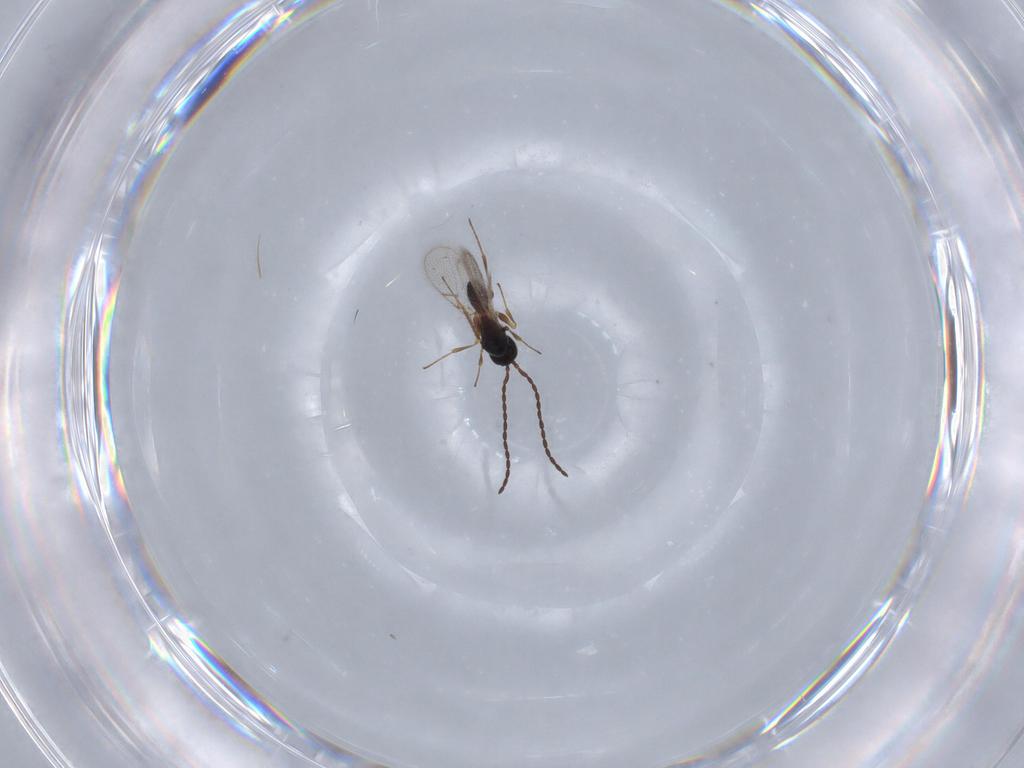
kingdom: Animalia
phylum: Arthropoda
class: Insecta
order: Hymenoptera
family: Figitidae
